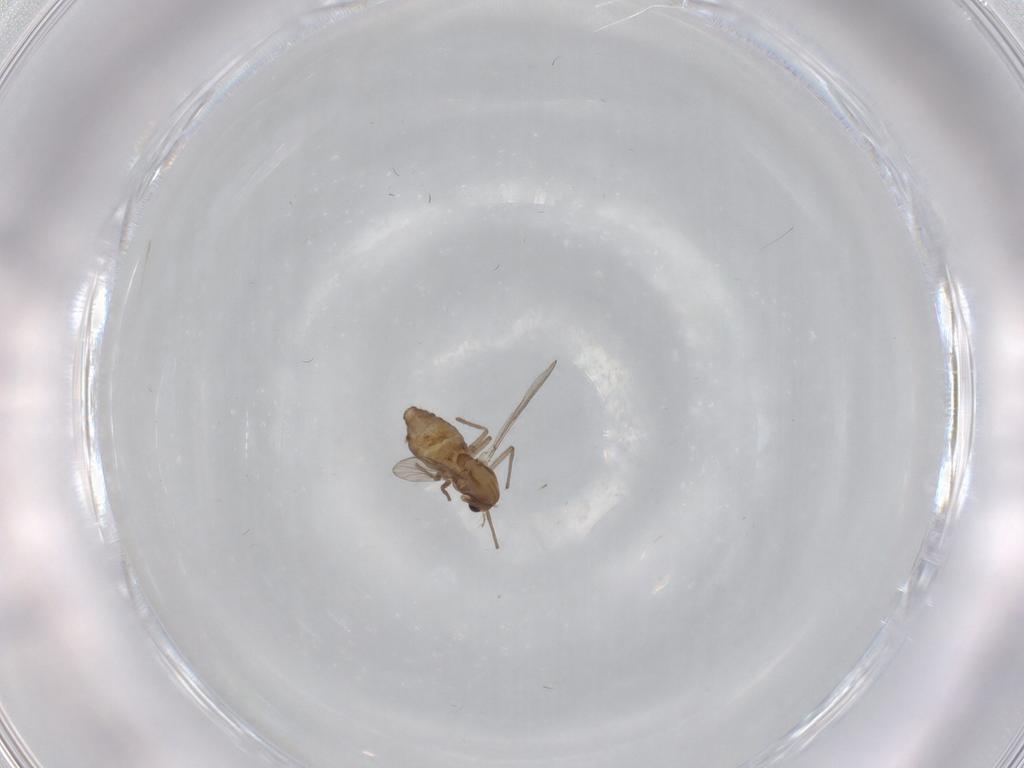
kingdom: Animalia
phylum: Arthropoda
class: Insecta
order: Diptera
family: Chironomidae
